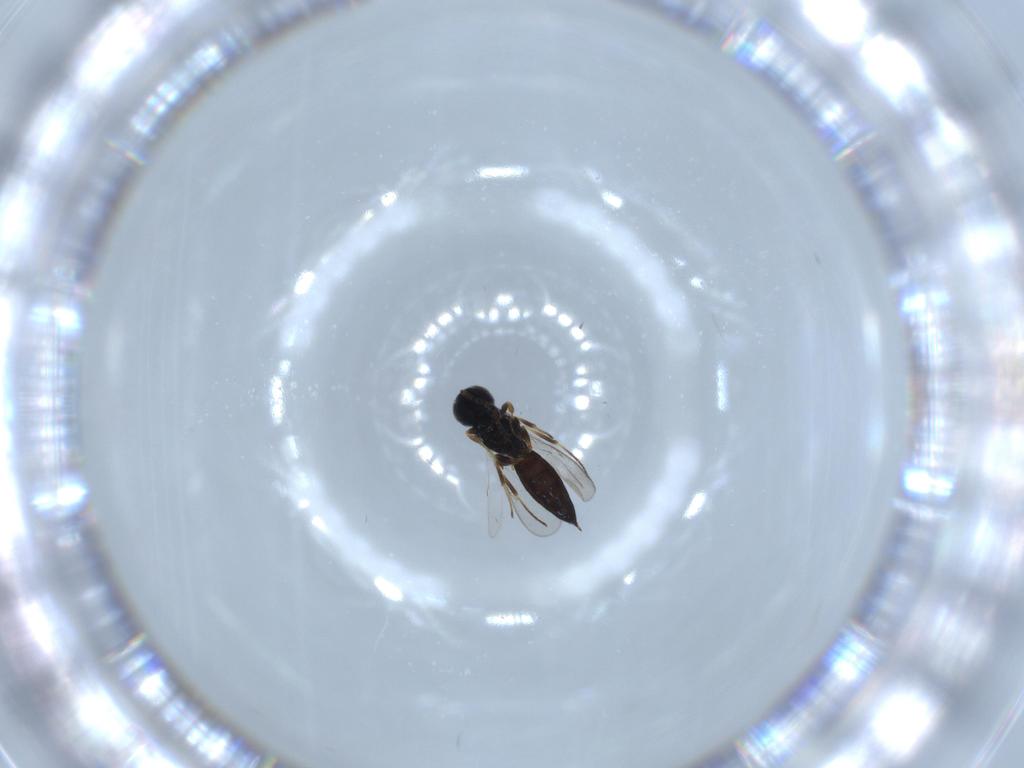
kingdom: Animalia
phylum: Arthropoda
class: Insecta
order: Hymenoptera
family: Scelionidae
